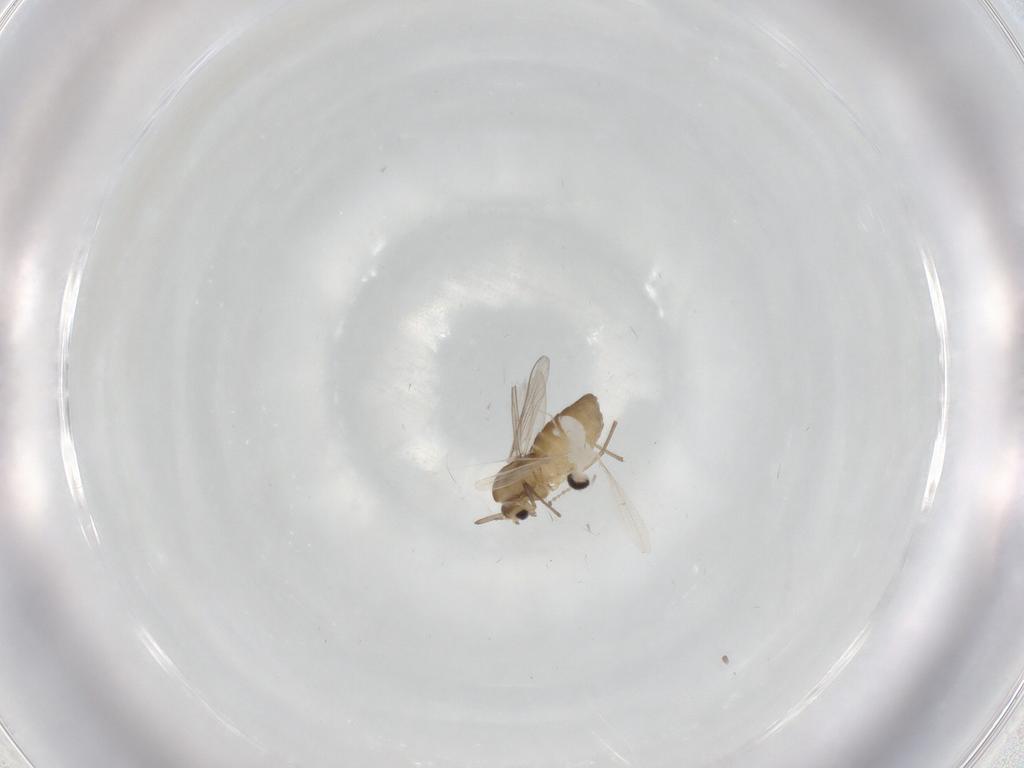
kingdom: Animalia
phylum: Arthropoda
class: Insecta
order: Diptera
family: Chironomidae
